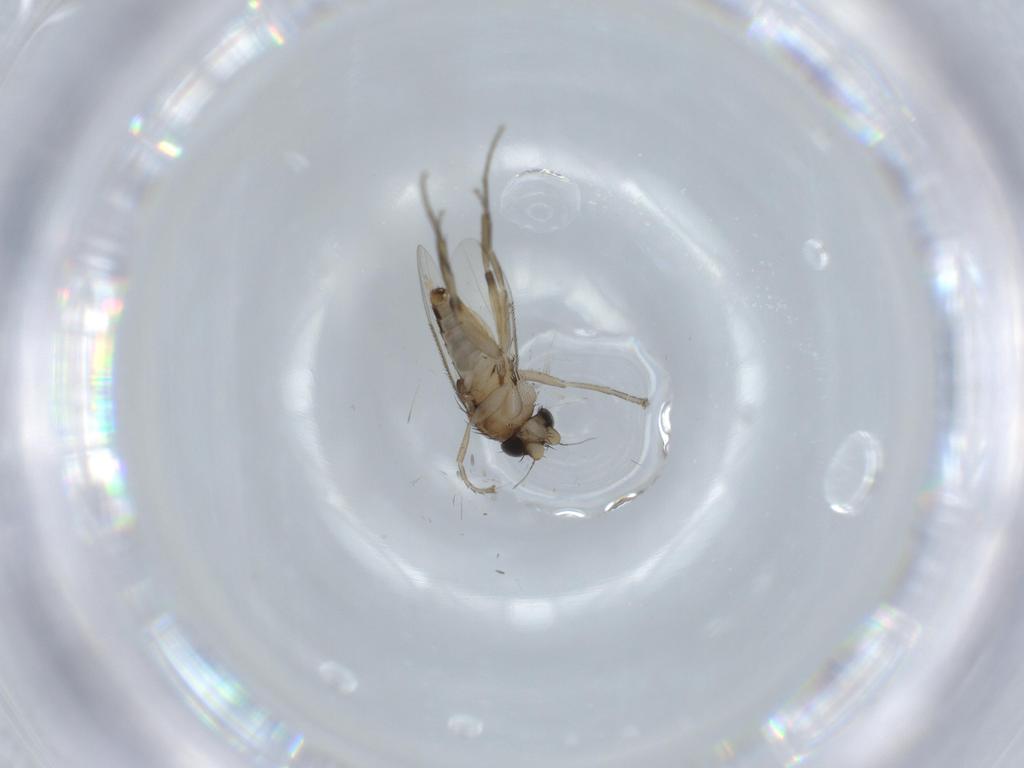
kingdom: Animalia
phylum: Arthropoda
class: Insecta
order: Diptera
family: Phoridae
